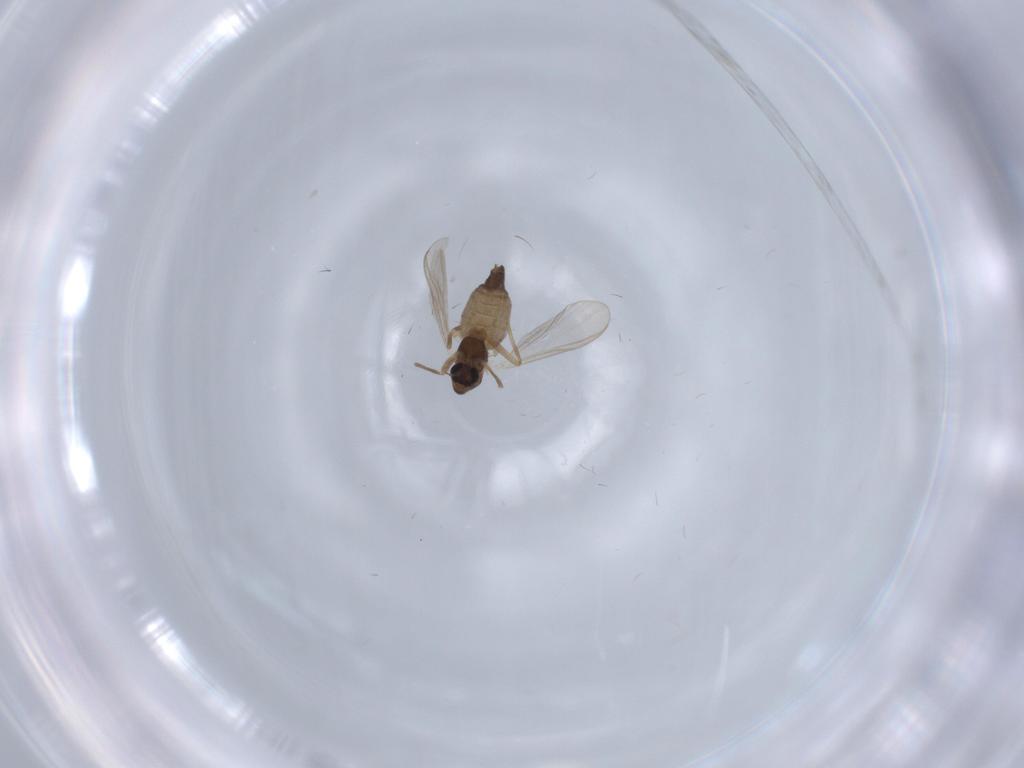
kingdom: Animalia
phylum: Arthropoda
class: Insecta
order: Diptera
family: Chironomidae
